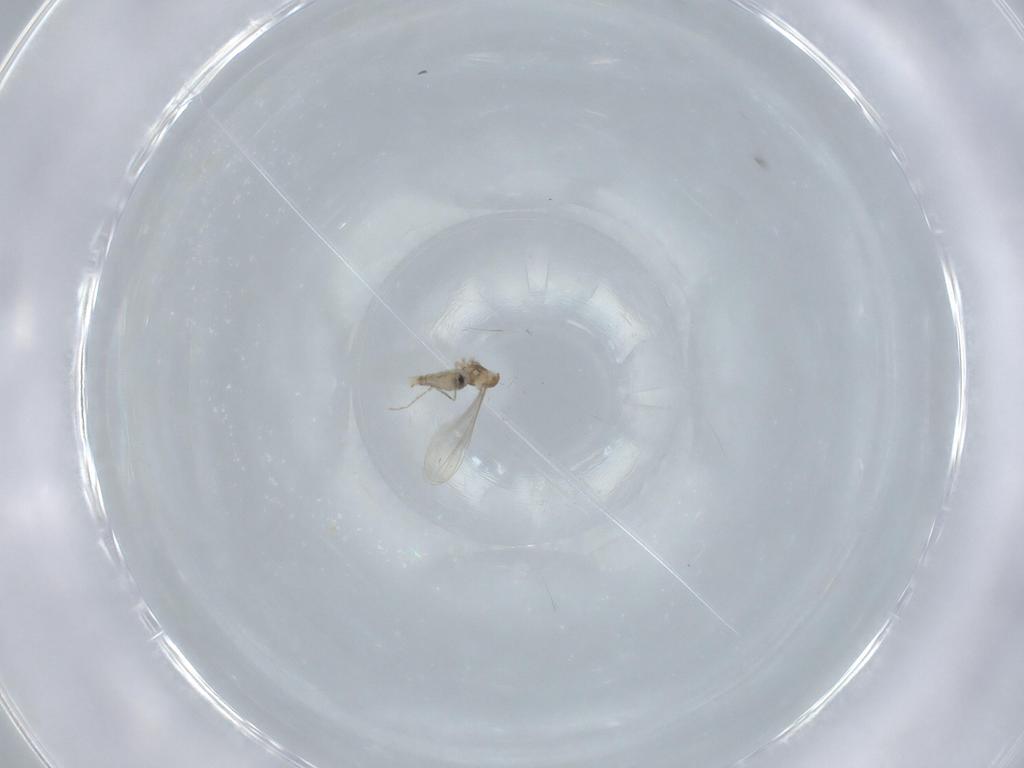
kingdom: Animalia
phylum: Arthropoda
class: Insecta
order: Diptera
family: Cecidomyiidae
